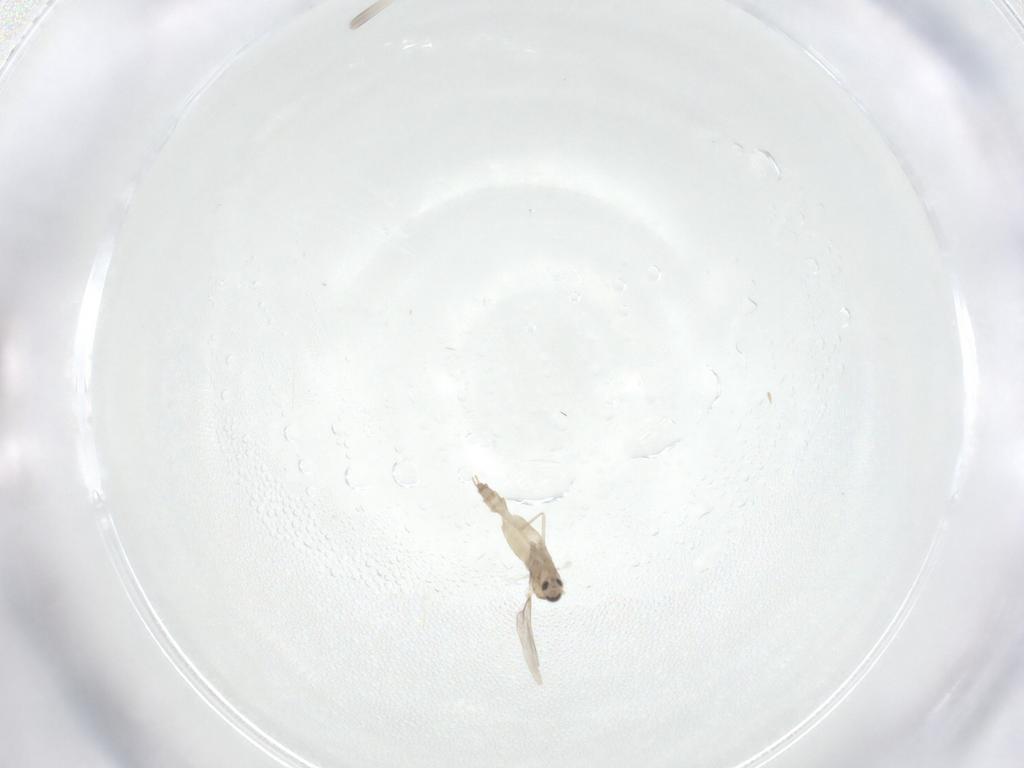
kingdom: Animalia
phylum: Arthropoda
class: Insecta
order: Diptera
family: Cecidomyiidae
